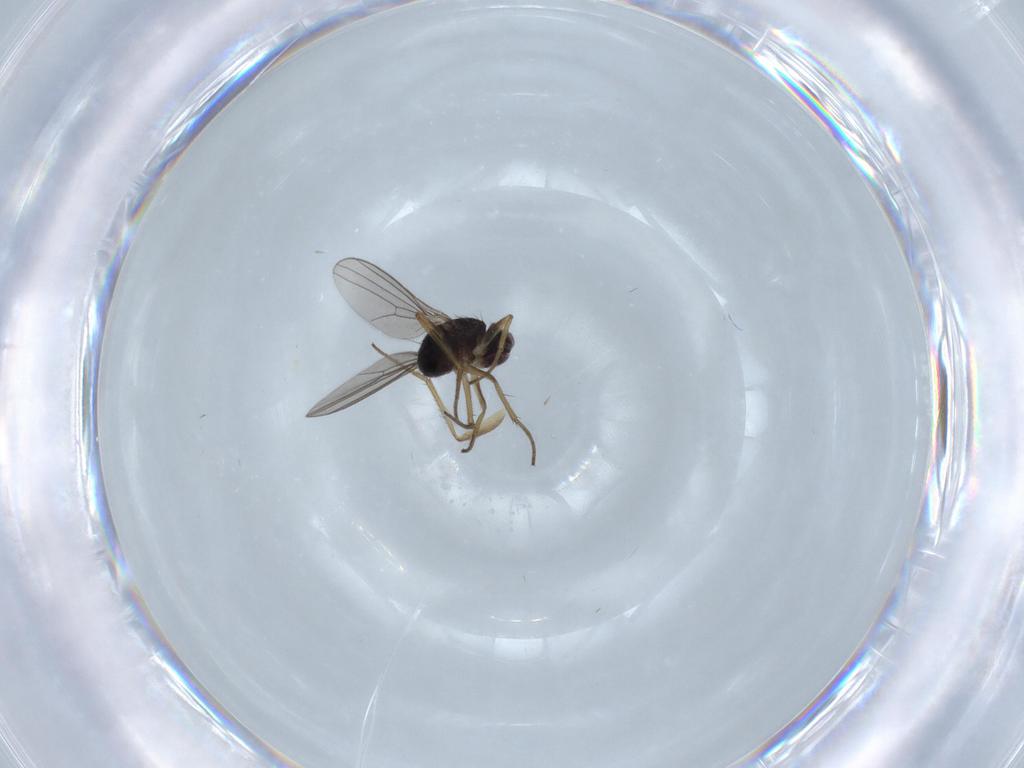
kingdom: Animalia
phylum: Arthropoda
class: Insecta
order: Diptera
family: Dolichopodidae
